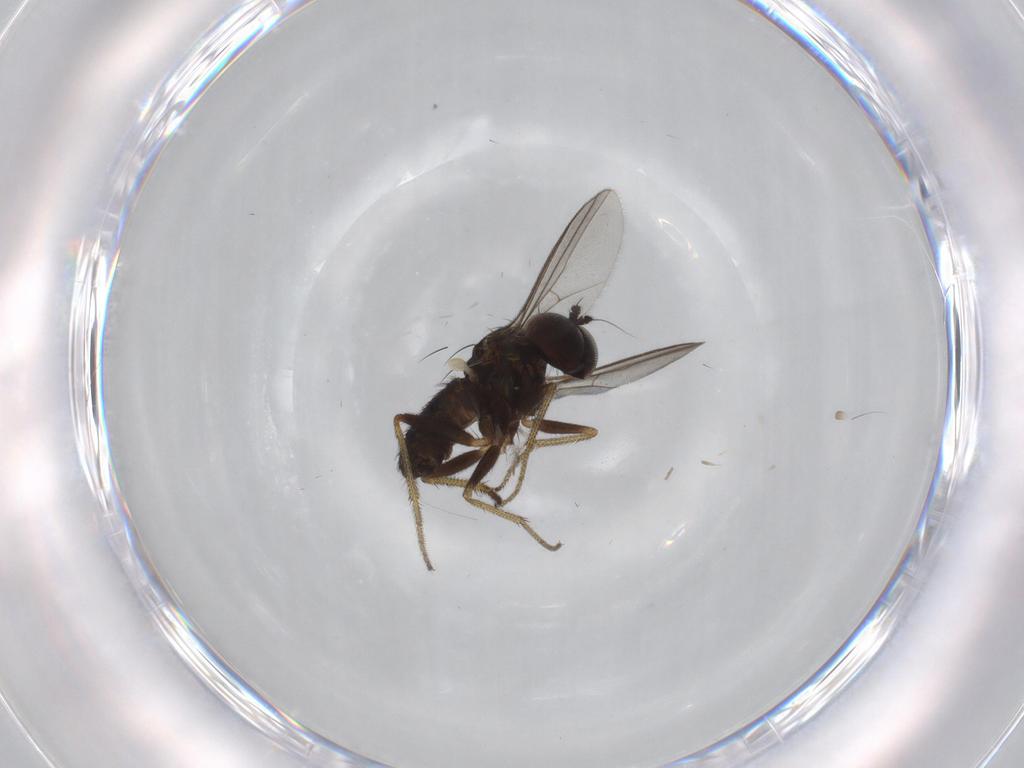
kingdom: Animalia
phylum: Arthropoda
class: Insecta
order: Diptera
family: Dolichopodidae
